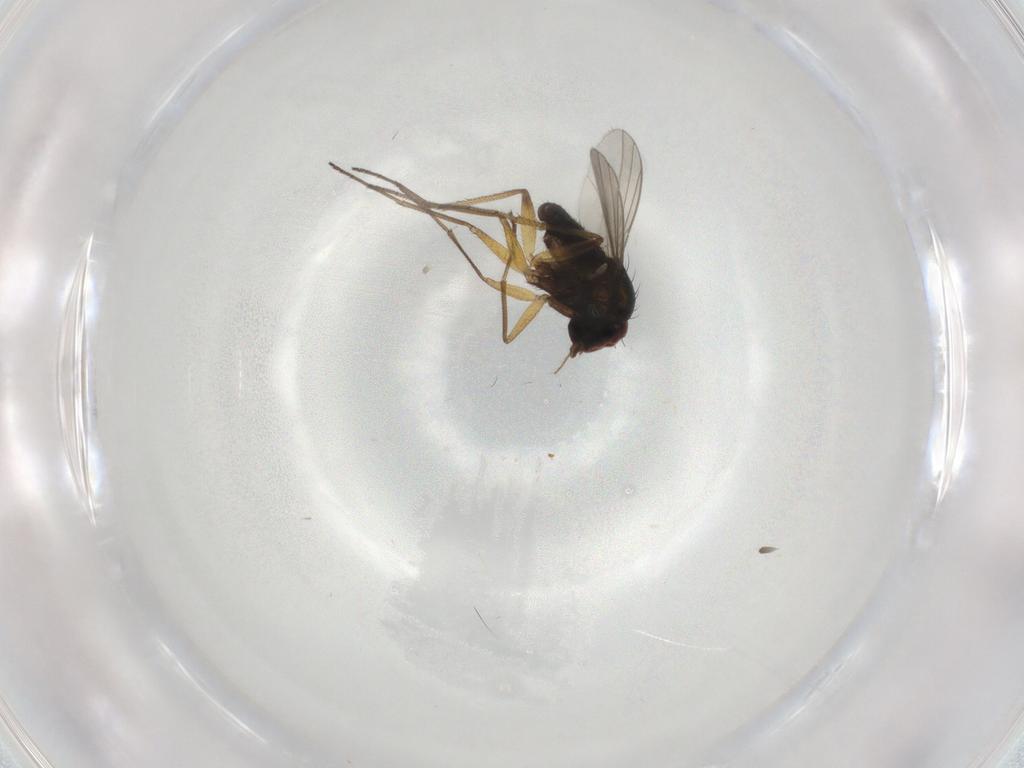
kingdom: Animalia
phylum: Arthropoda
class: Insecta
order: Diptera
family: Dolichopodidae
